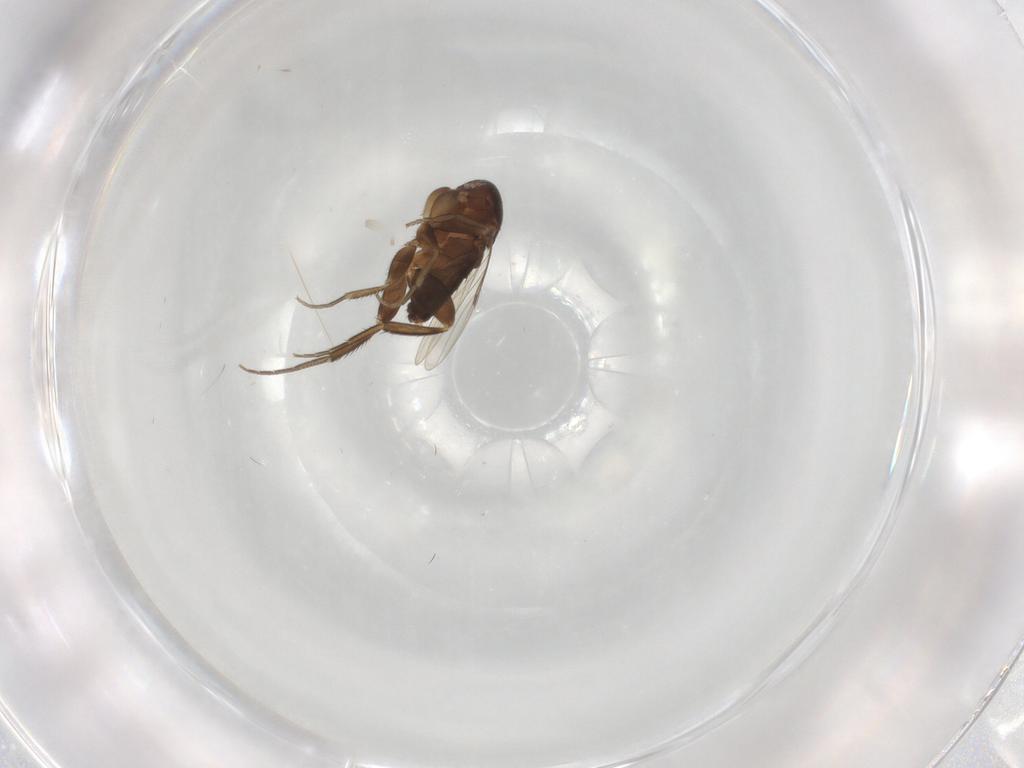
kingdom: Animalia
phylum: Arthropoda
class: Insecta
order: Diptera
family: Phoridae
